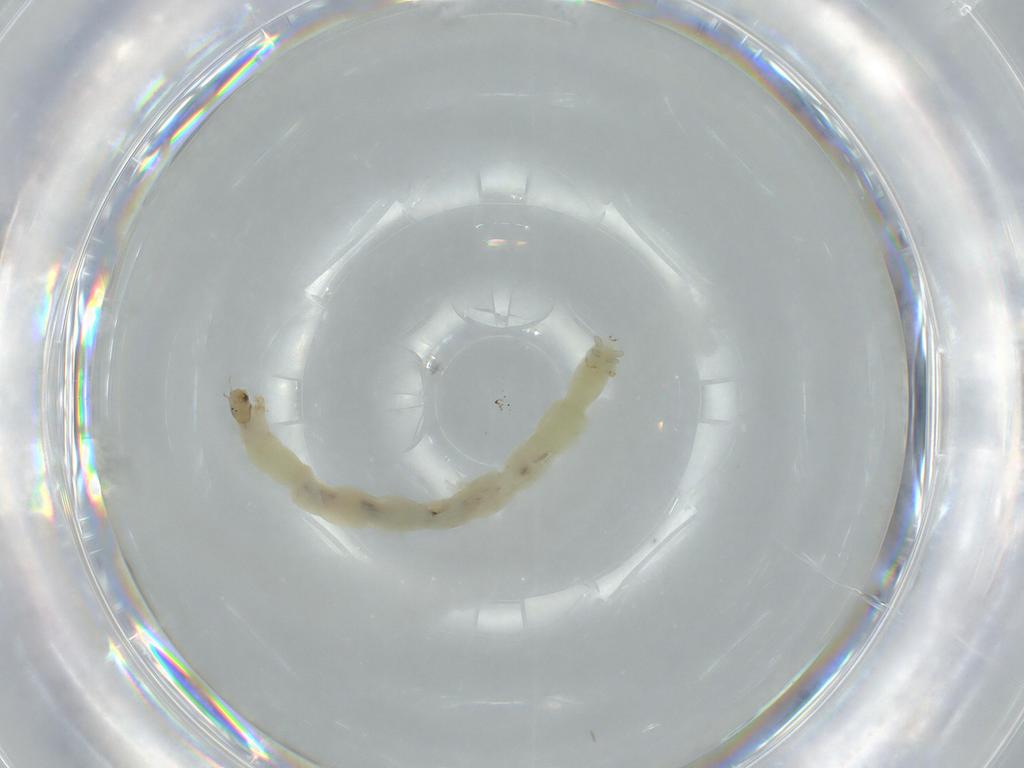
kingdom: Animalia
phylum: Arthropoda
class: Insecta
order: Diptera
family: Chironomidae
